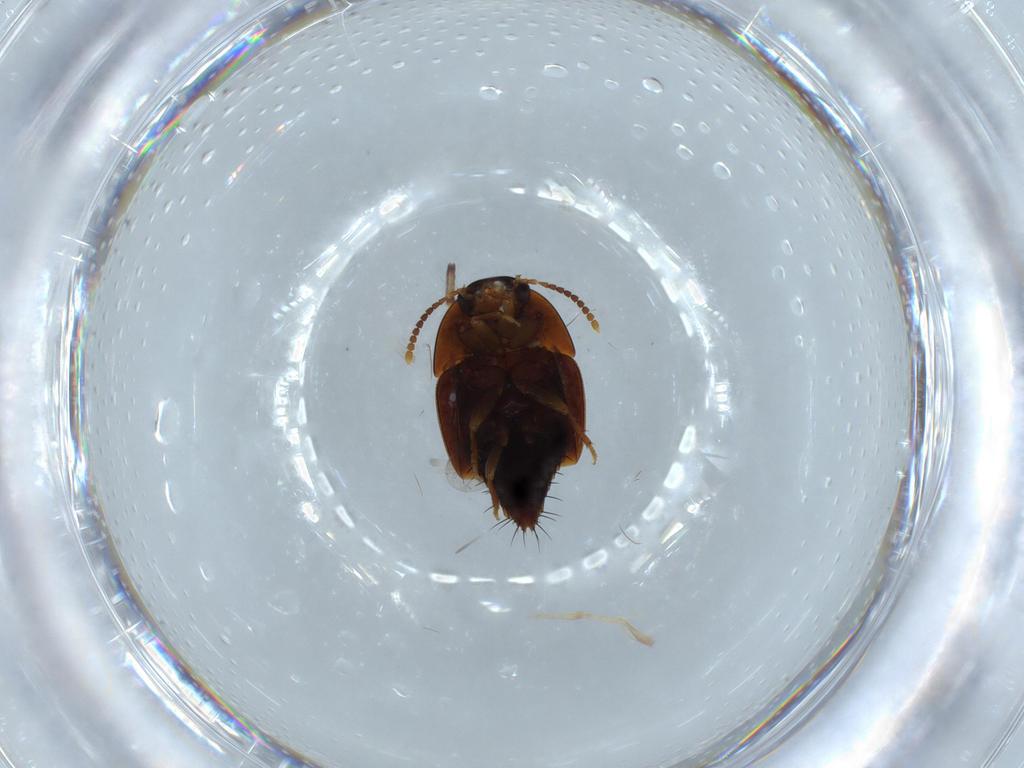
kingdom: Animalia
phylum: Arthropoda
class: Insecta
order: Coleoptera
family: Staphylinidae
